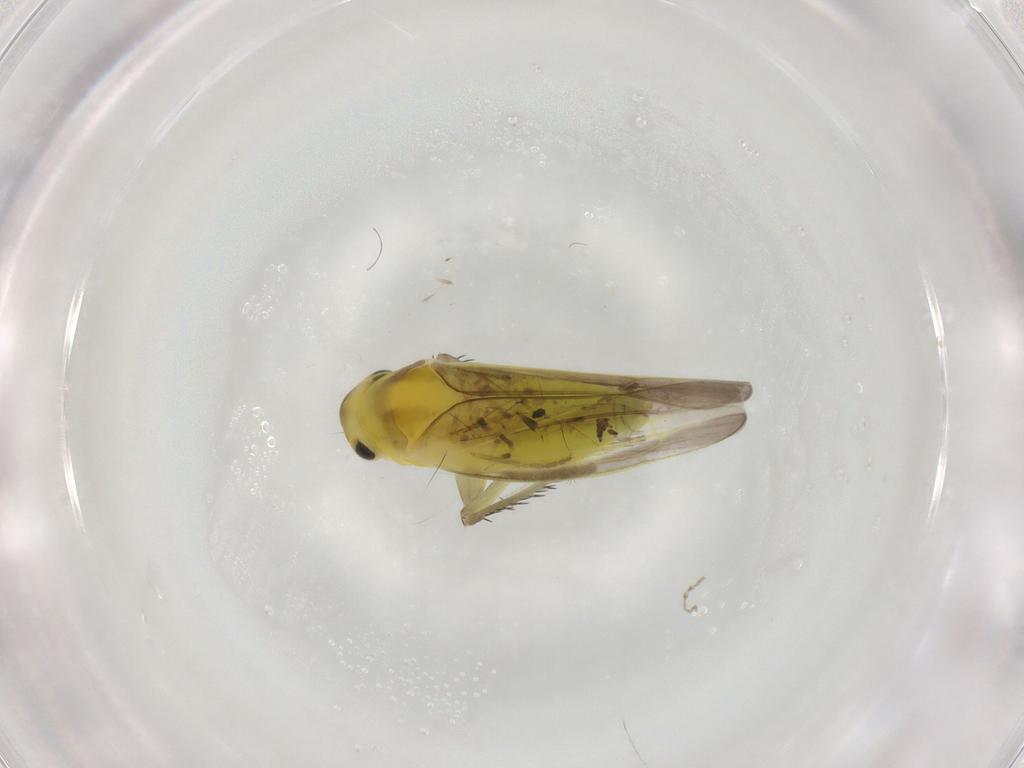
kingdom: Animalia
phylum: Arthropoda
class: Insecta
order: Hemiptera
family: Cicadellidae
